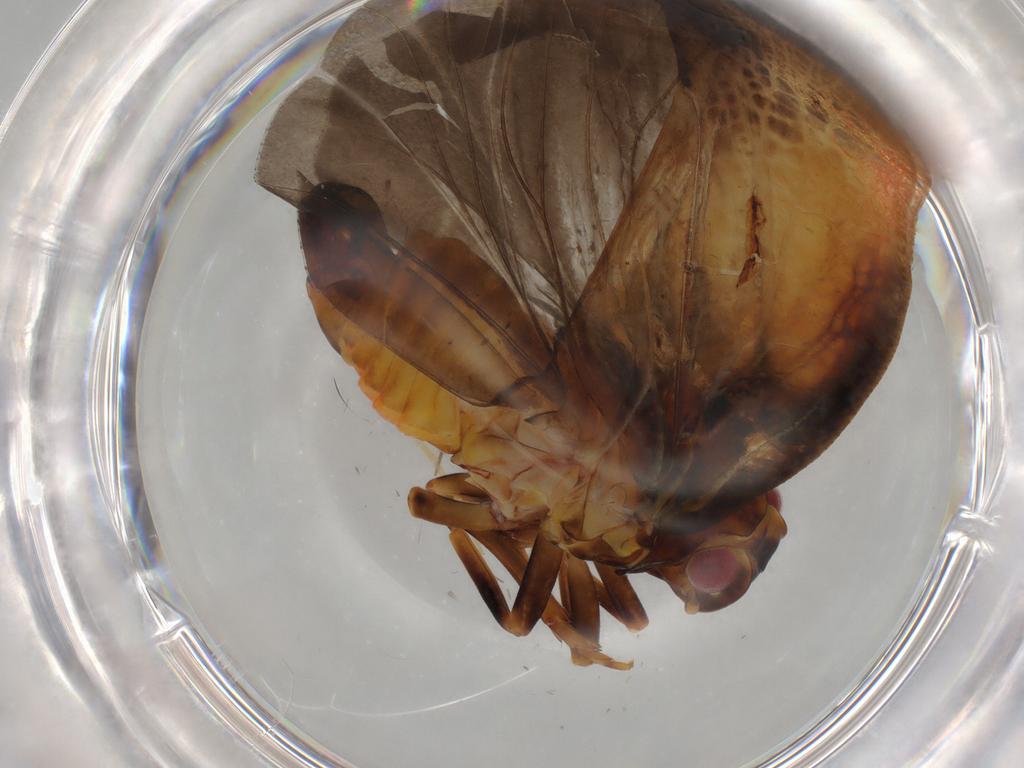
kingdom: Animalia
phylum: Arthropoda
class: Insecta
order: Hemiptera
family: Flatidae
